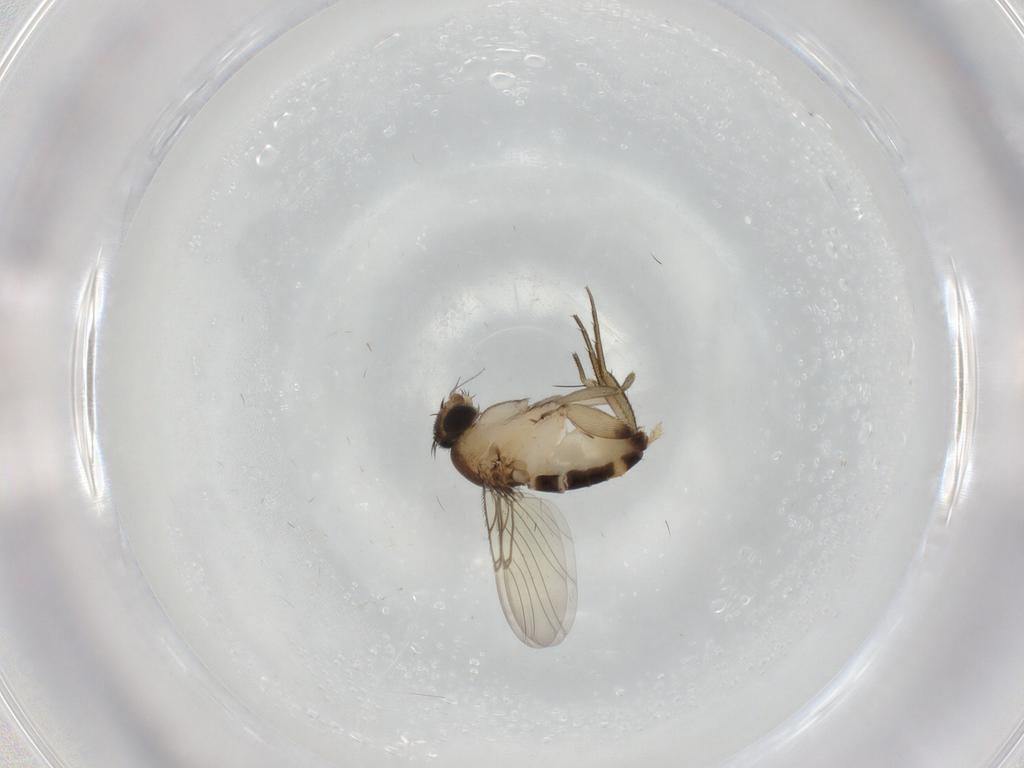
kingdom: Animalia
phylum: Arthropoda
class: Insecta
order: Diptera
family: Phoridae
